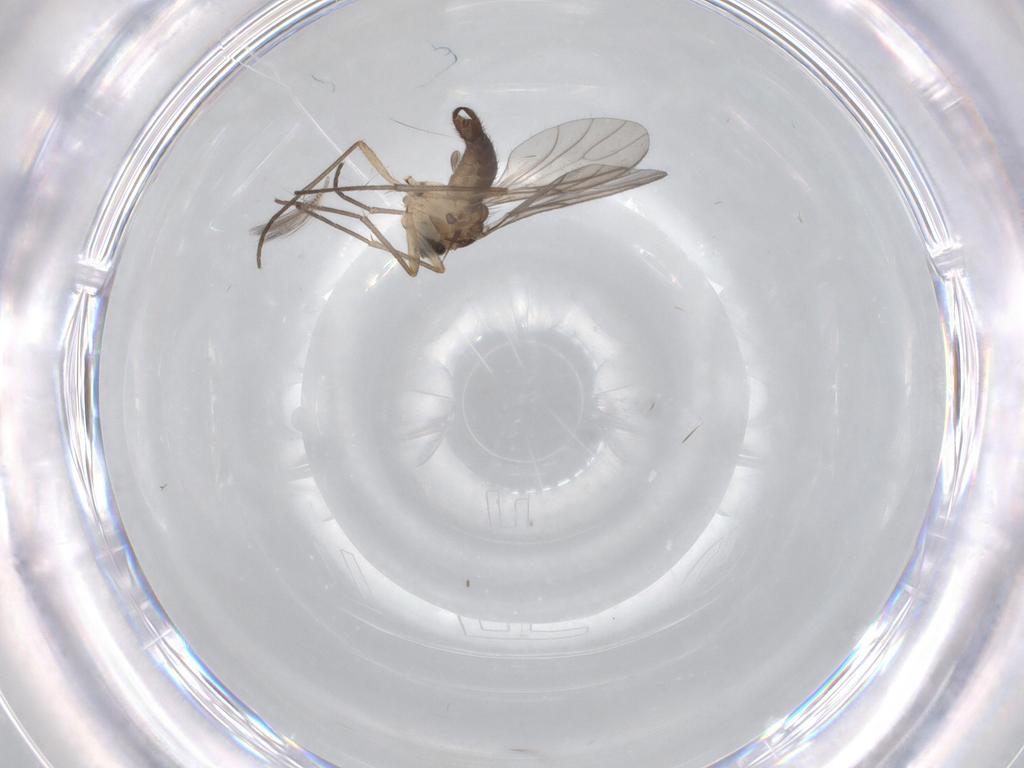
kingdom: Animalia
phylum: Arthropoda
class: Insecta
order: Diptera
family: Sciaridae
